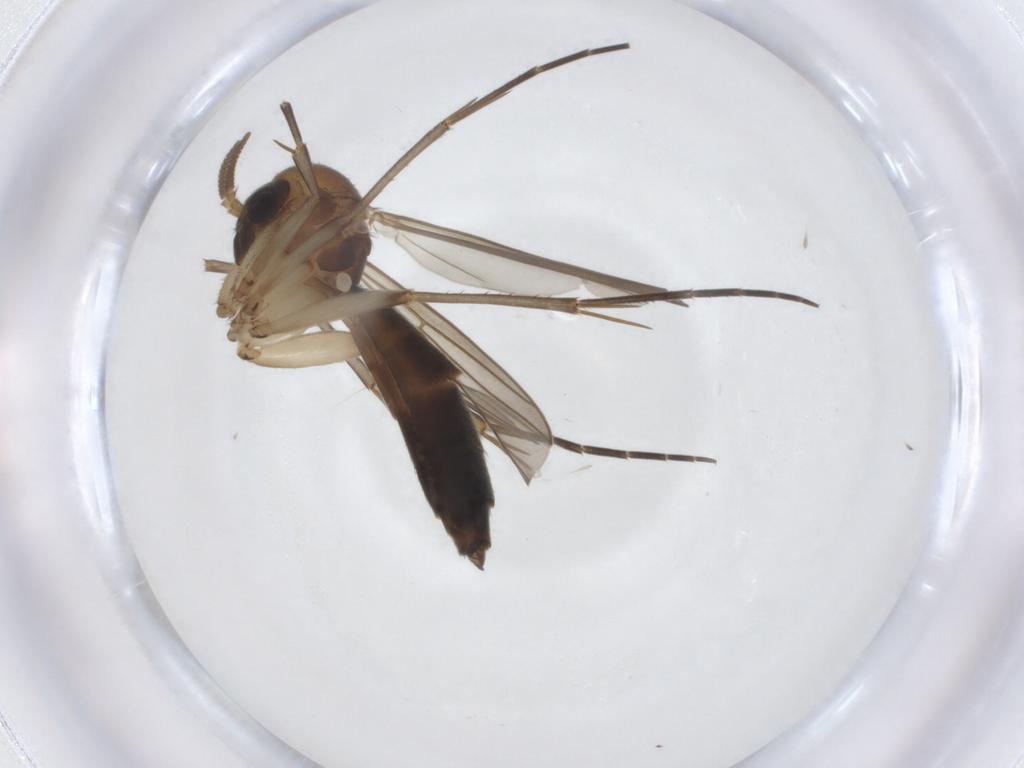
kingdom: Animalia
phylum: Arthropoda
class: Insecta
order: Diptera
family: Mycetophilidae
